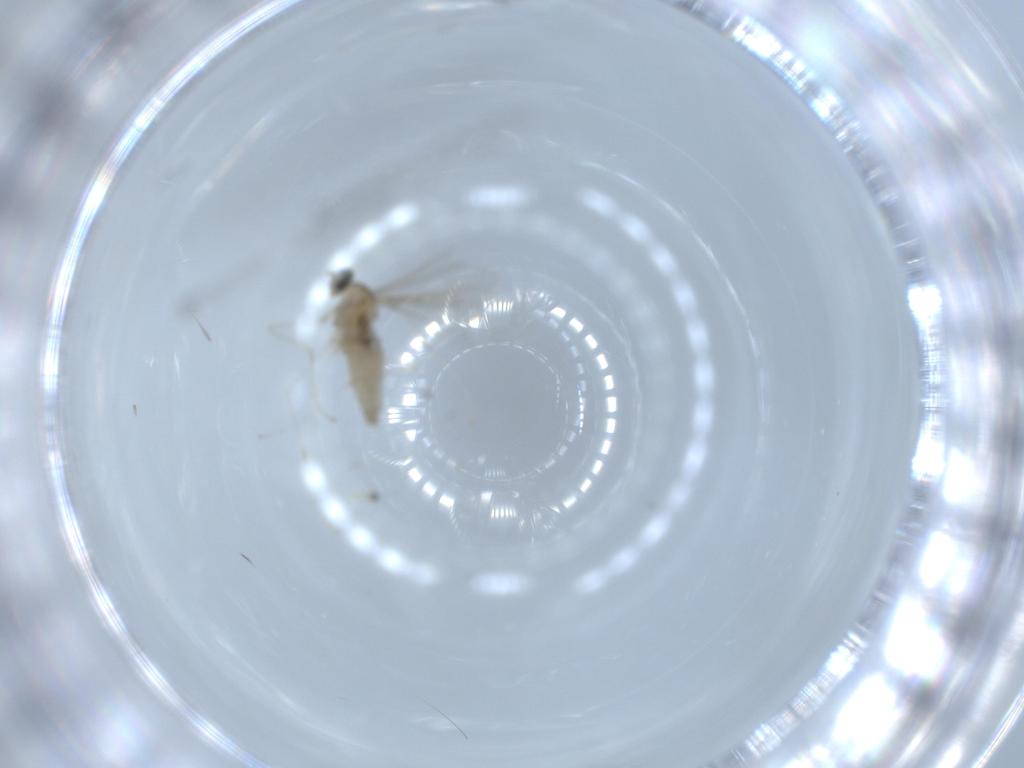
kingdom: Animalia
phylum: Arthropoda
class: Insecta
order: Diptera
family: Cecidomyiidae
